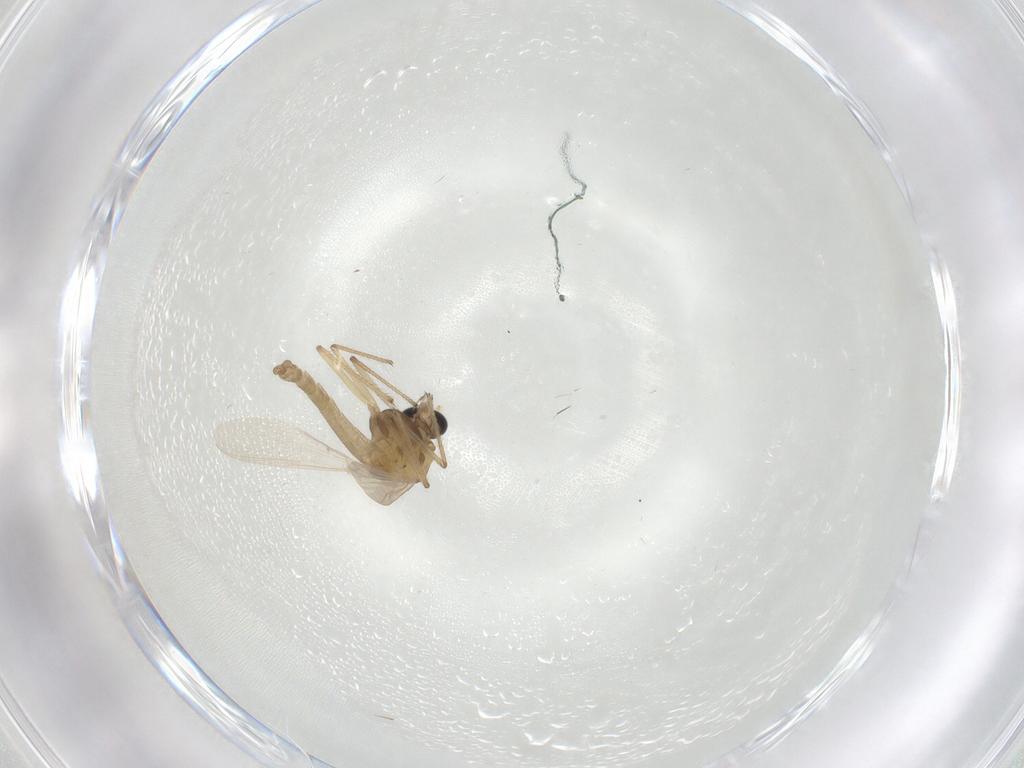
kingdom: Animalia
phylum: Arthropoda
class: Insecta
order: Diptera
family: Chironomidae
